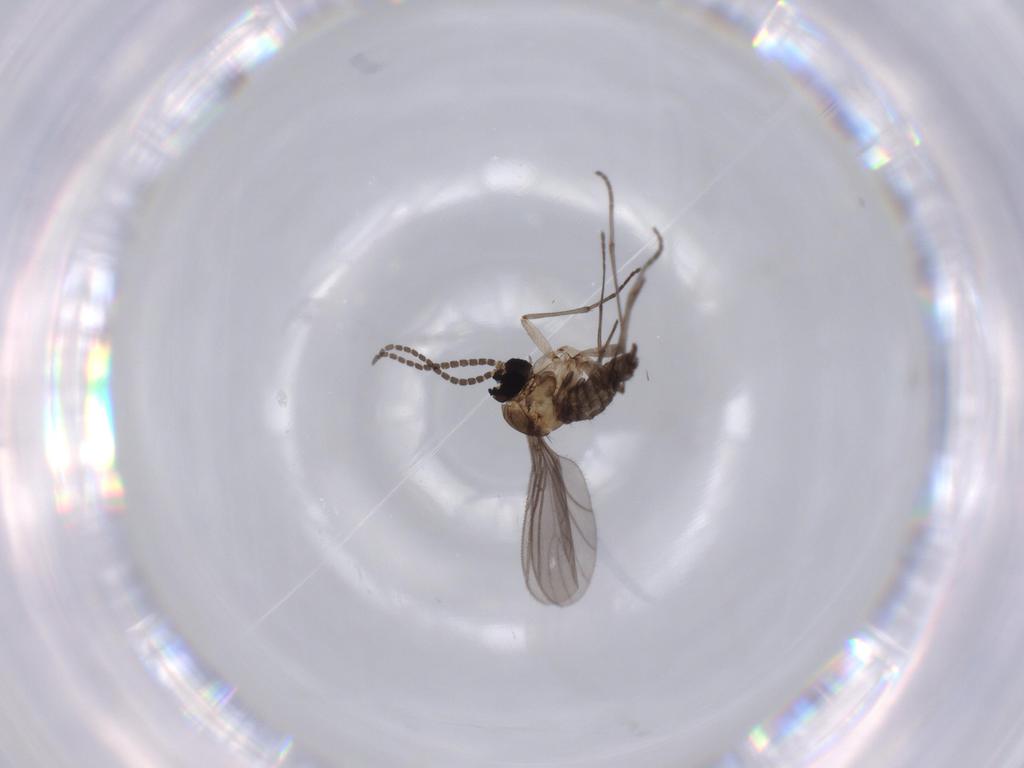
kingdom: Animalia
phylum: Arthropoda
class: Insecta
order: Diptera
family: Sciaridae
